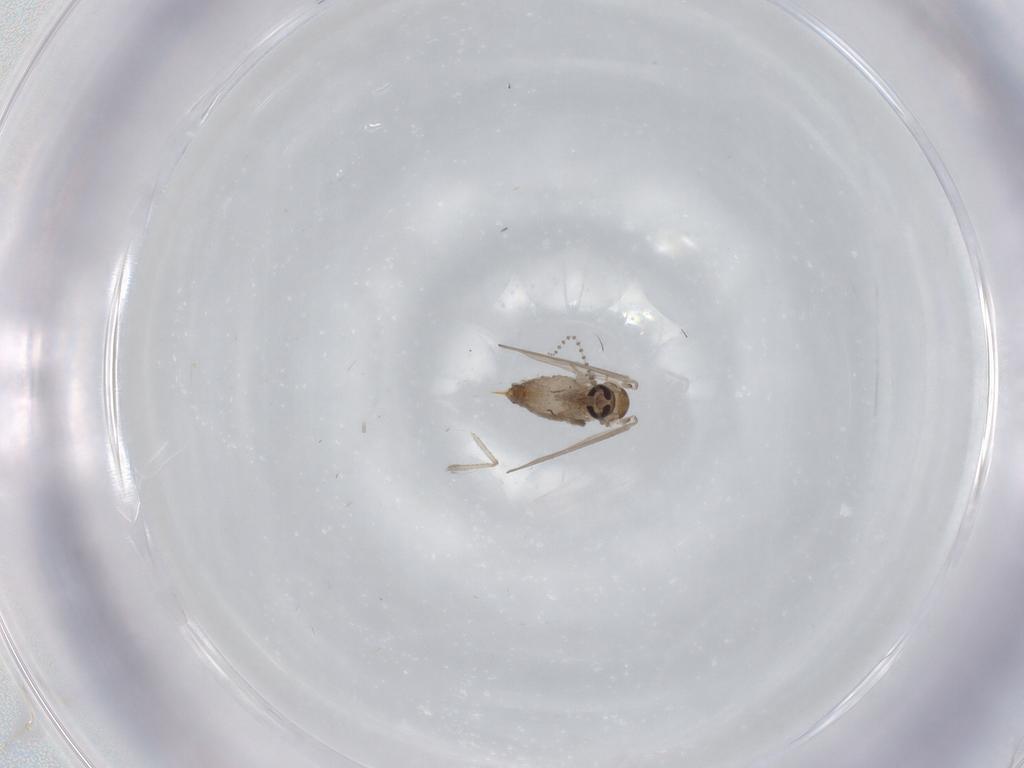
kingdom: Animalia
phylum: Arthropoda
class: Insecta
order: Diptera
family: Psychodidae
